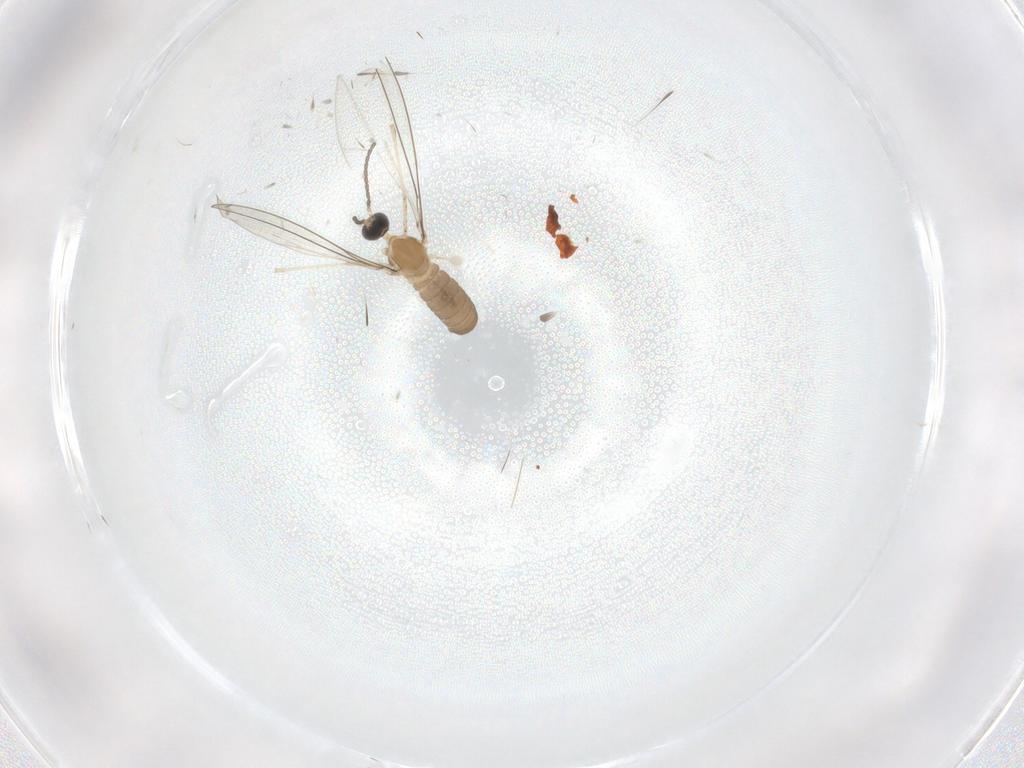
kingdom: Animalia
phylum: Arthropoda
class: Insecta
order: Diptera
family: Cecidomyiidae
